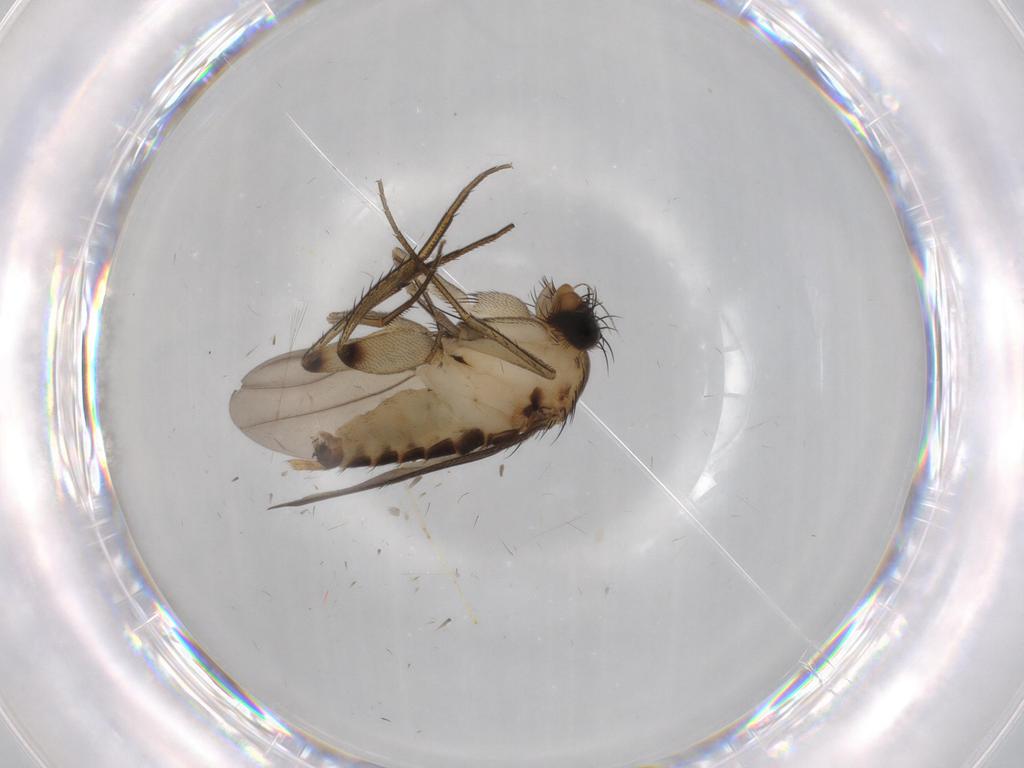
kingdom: Animalia
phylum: Arthropoda
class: Insecta
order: Diptera
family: Phoridae
